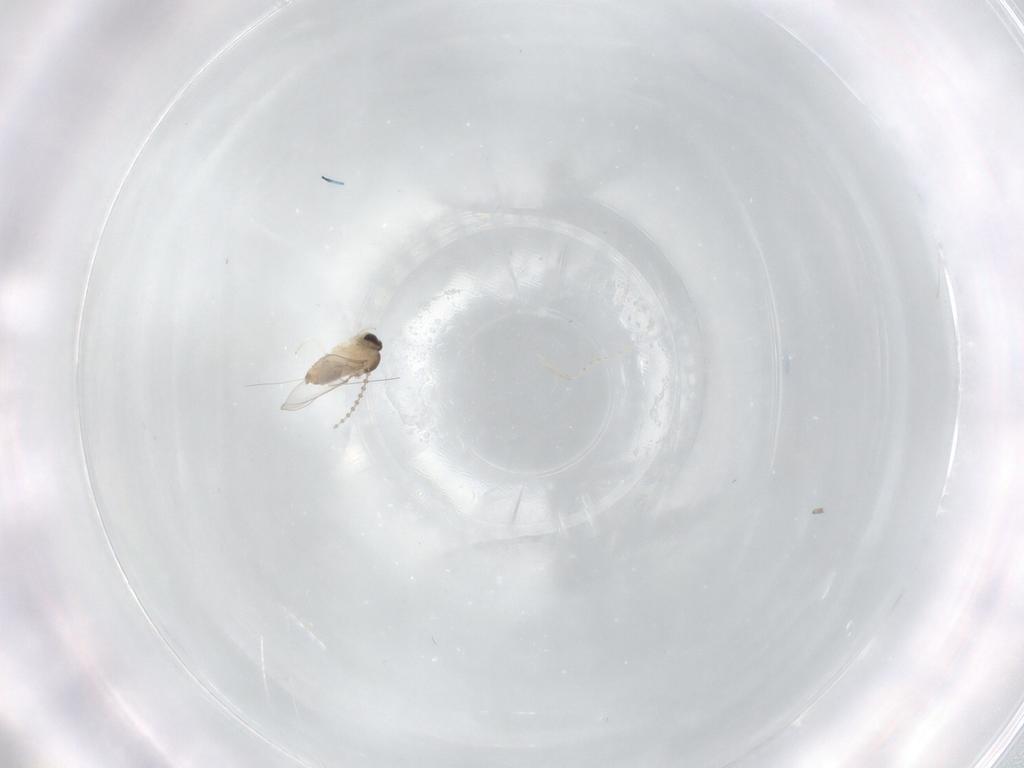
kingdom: Animalia
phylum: Arthropoda
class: Insecta
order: Diptera
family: Cecidomyiidae
